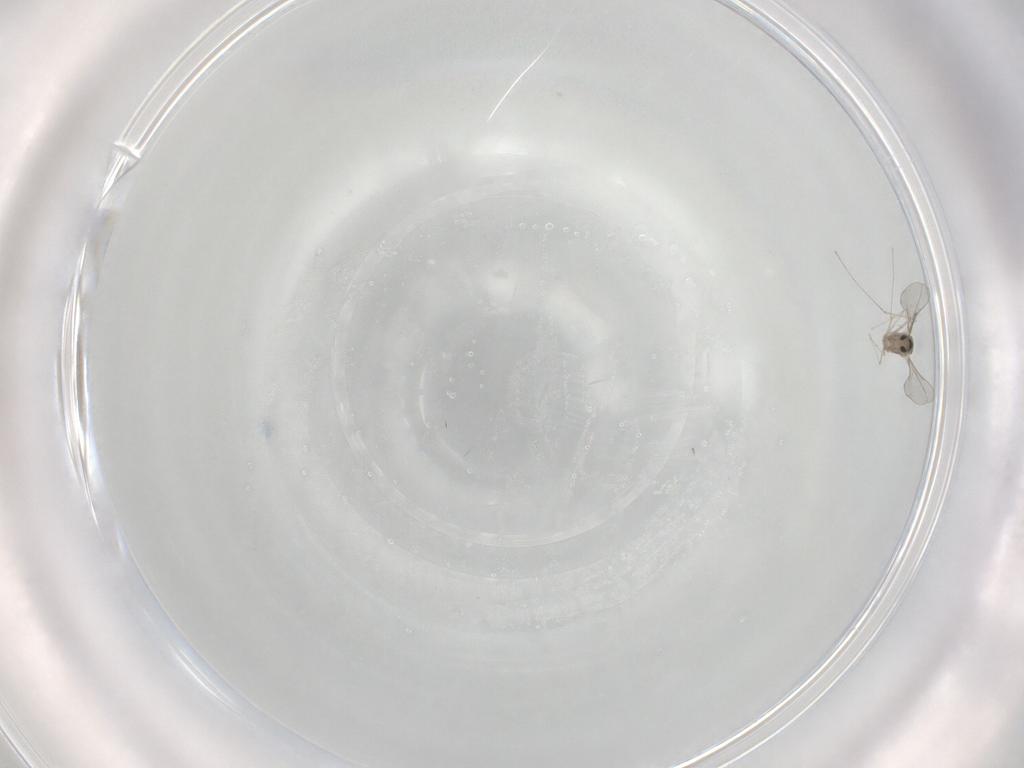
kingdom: Animalia
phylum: Arthropoda
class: Insecta
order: Diptera
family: Cecidomyiidae
